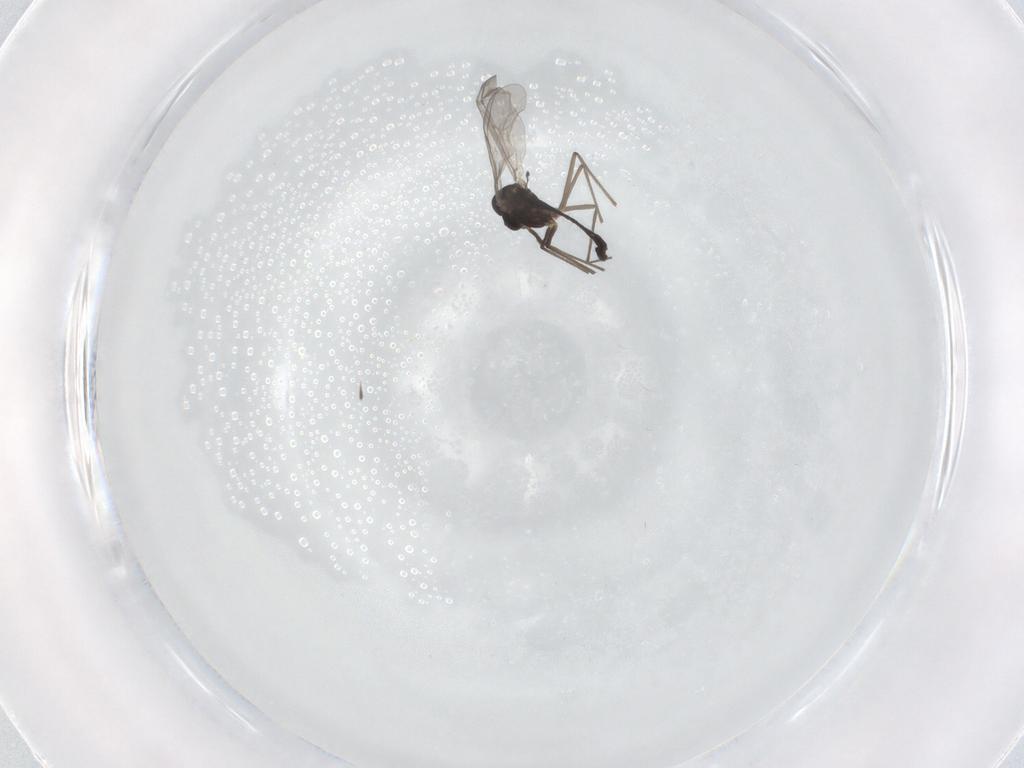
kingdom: Animalia
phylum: Arthropoda
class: Insecta
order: Diptera
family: Chironomidae
